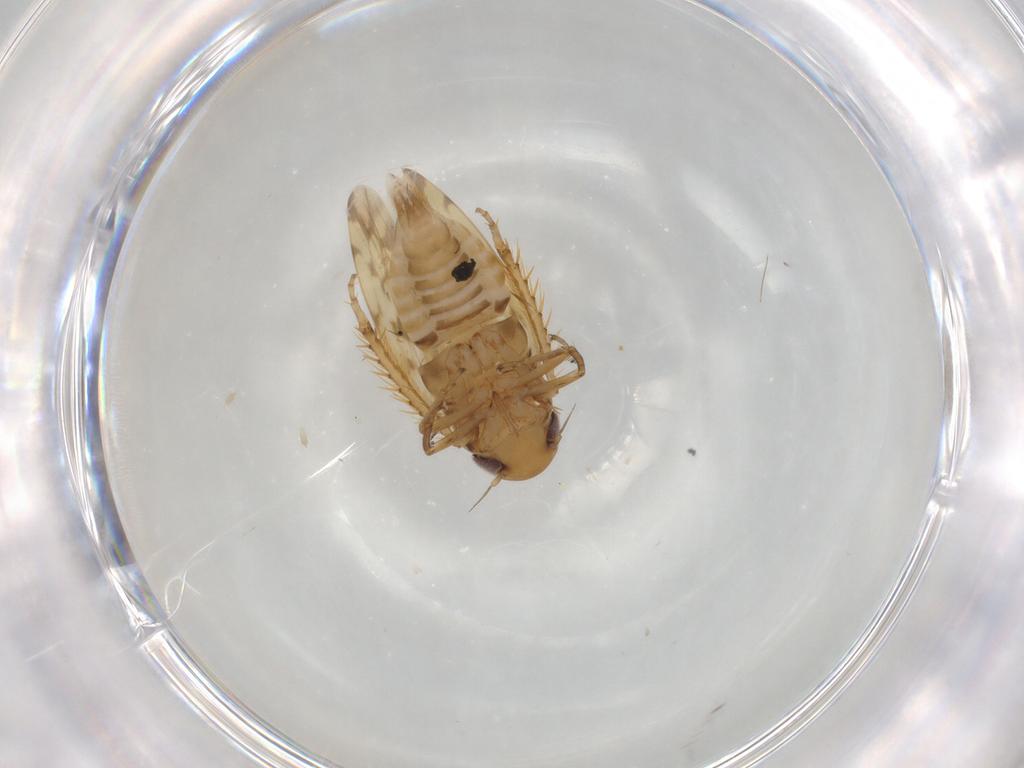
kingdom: Animalia
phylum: Arthropoda
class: Insecta
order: Hemiptera
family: Cicadellidae
